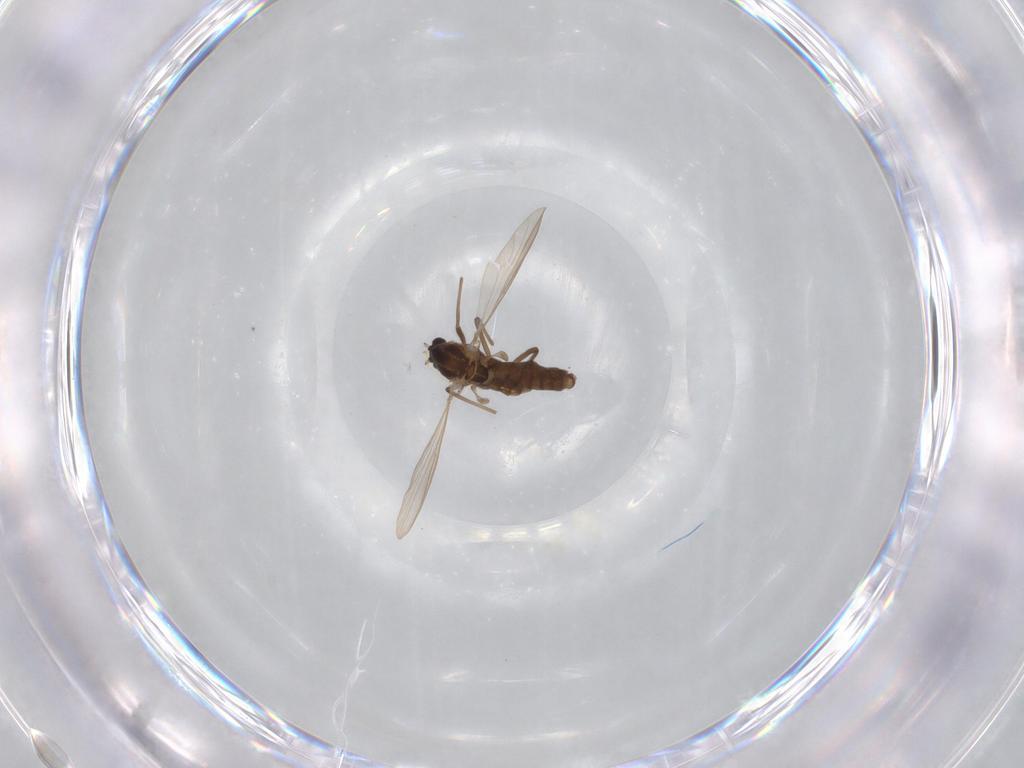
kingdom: Animalia
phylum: Arthropoda
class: Insecta
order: Diptera
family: Chironomidae
